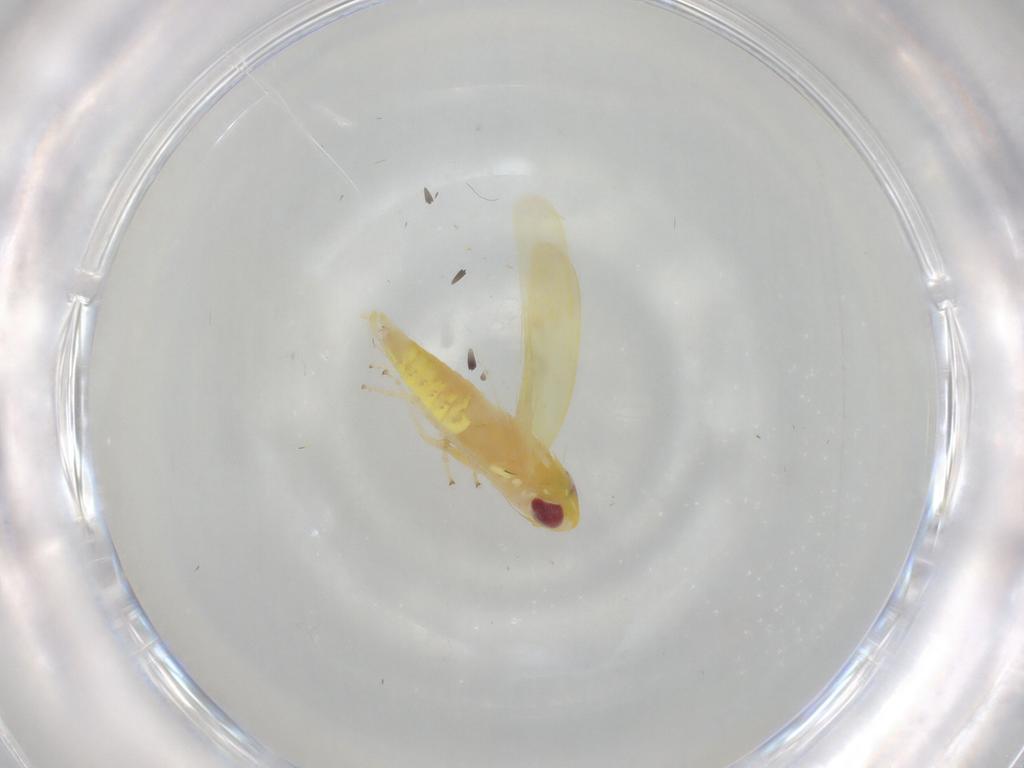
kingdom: Animalia
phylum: Arthropoda
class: Insecta
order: Hemiptera
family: Cicadellidae
